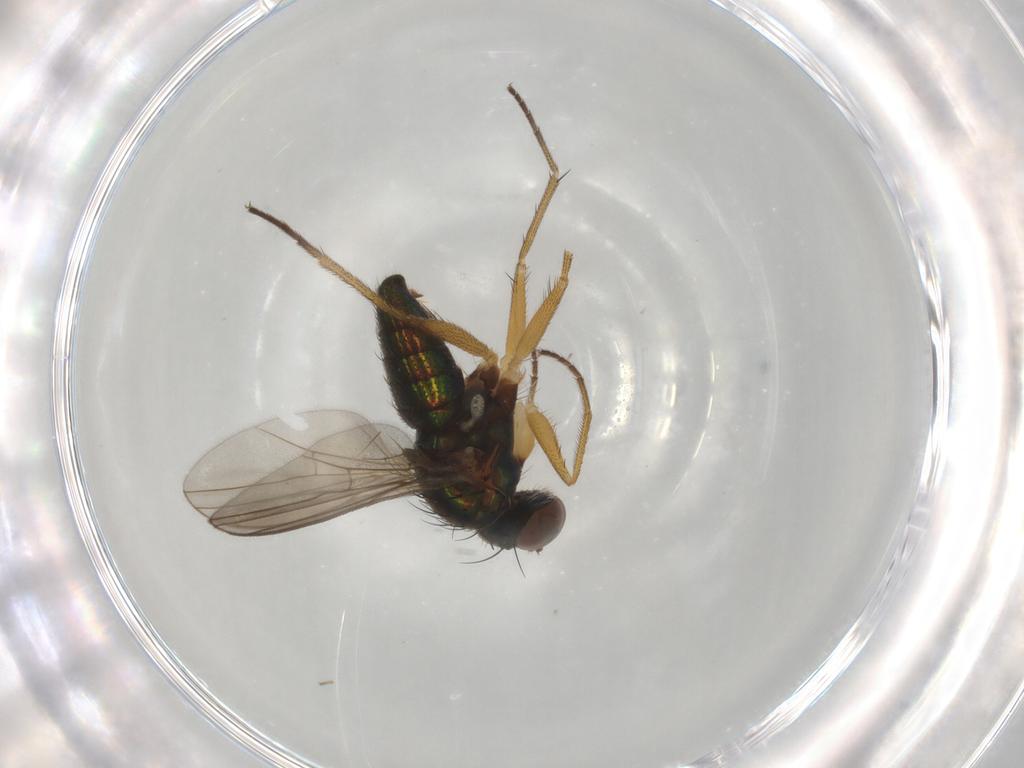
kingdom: Animalia
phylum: Arthropoda
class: Insecta
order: Diptera
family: Dolichopodidae
